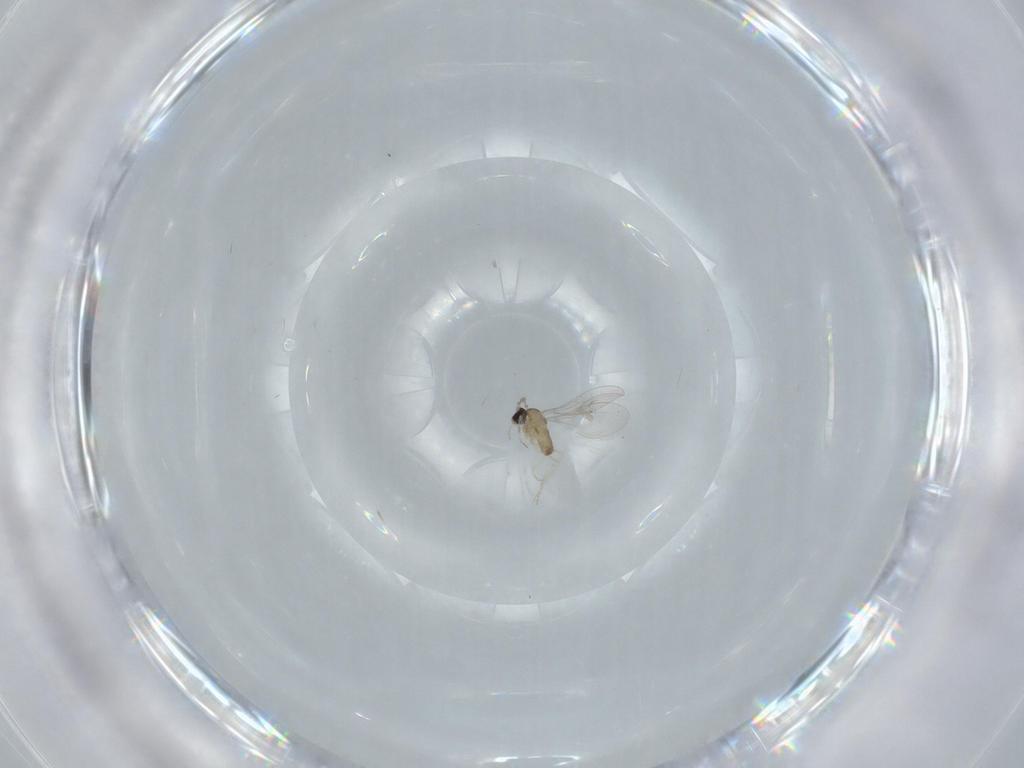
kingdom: Animalia
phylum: Arthropoda
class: Insecta
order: Diptera
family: Cecidomyiidae
